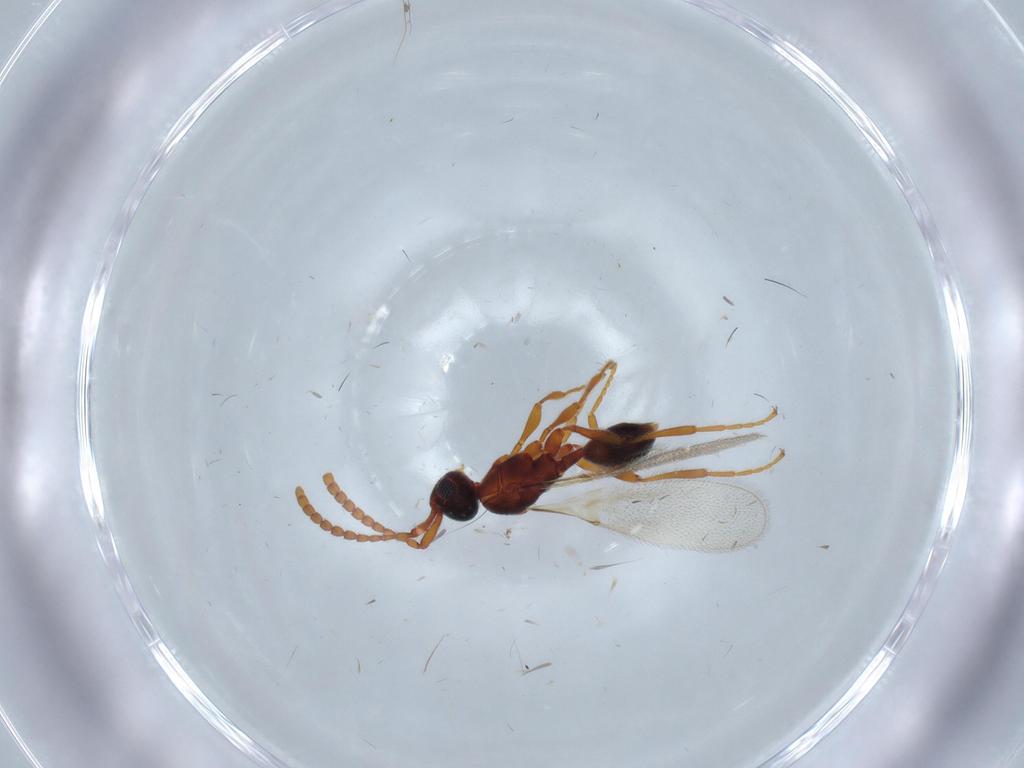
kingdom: Animalia
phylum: Arthropoda
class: Insecta
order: Hymenoptera
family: Diapriidae
